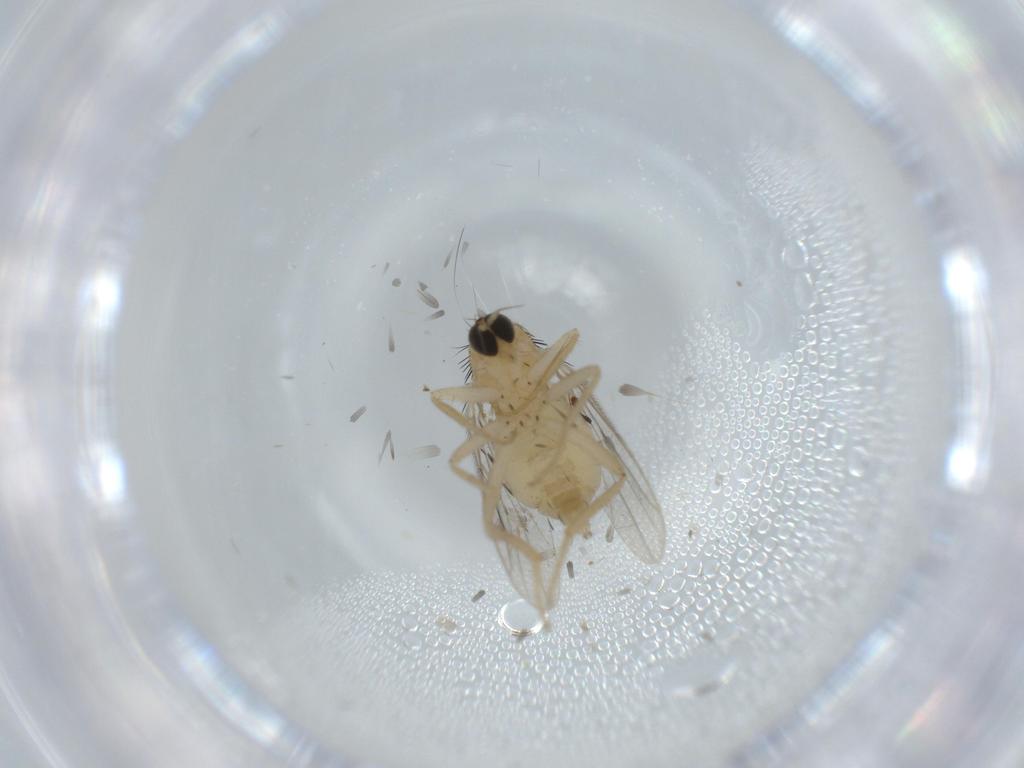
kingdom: Animalia
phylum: Arthropoda
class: Insecta
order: Diptera
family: Hybotidae
